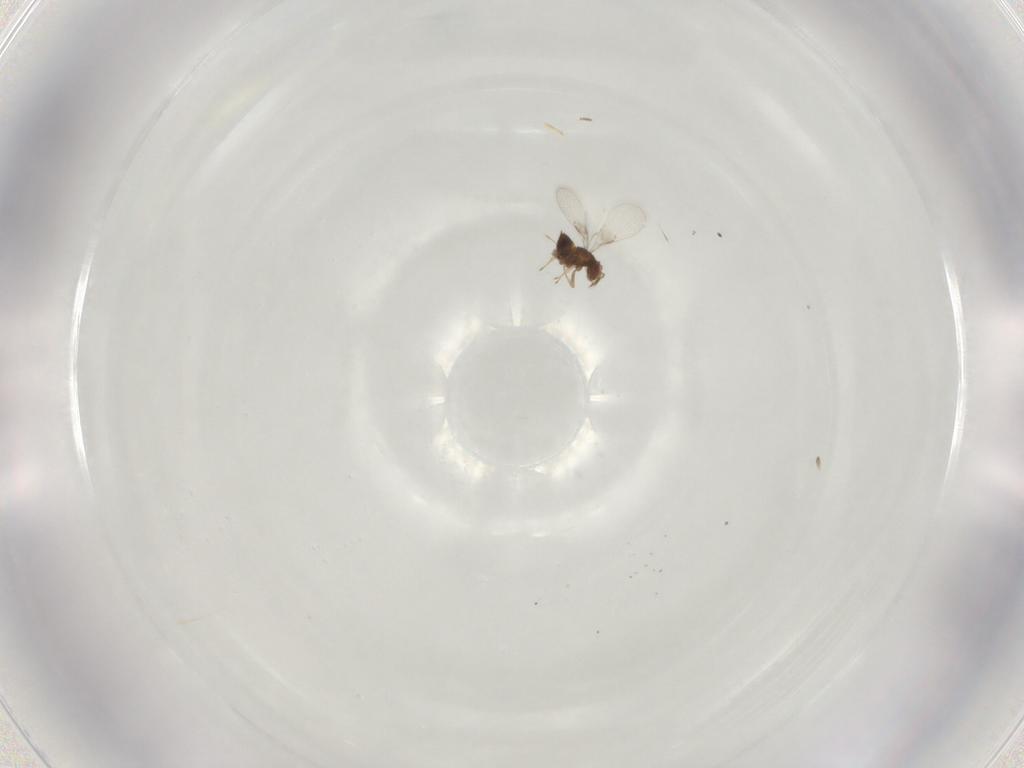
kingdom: Animalia
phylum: Arthropoda
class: Insecta
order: Hymenoptera
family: Scelionidae
